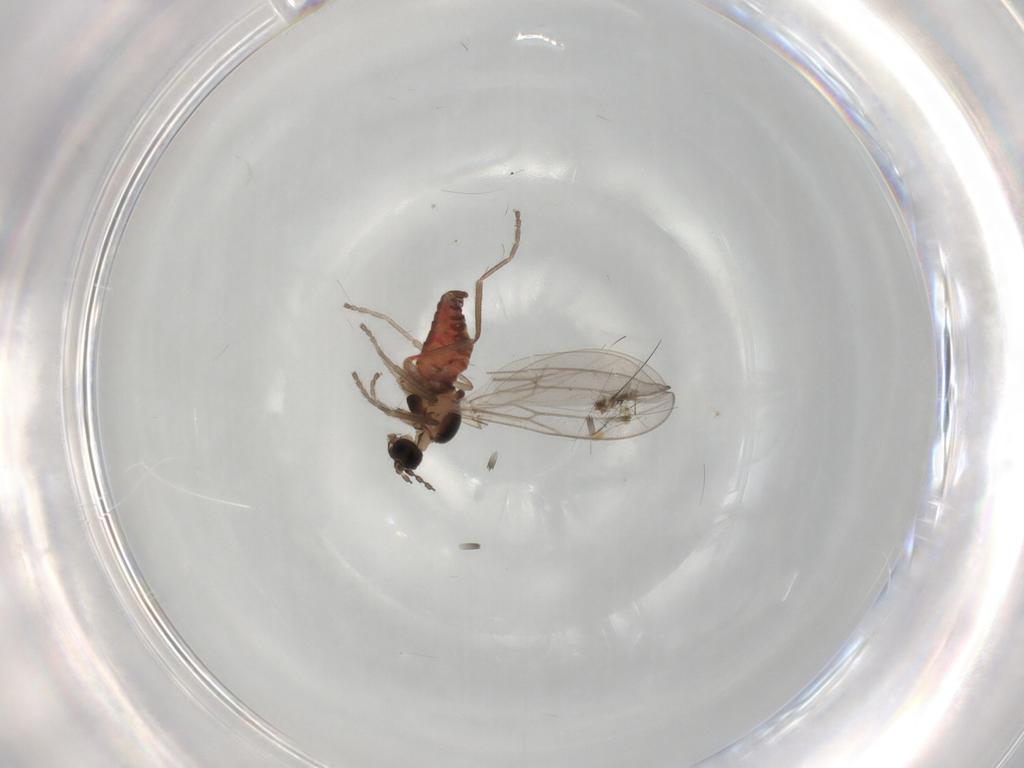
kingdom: Animalia
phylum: Arthropoda
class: Insecta
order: Diptera
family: Cecidomyiidae
